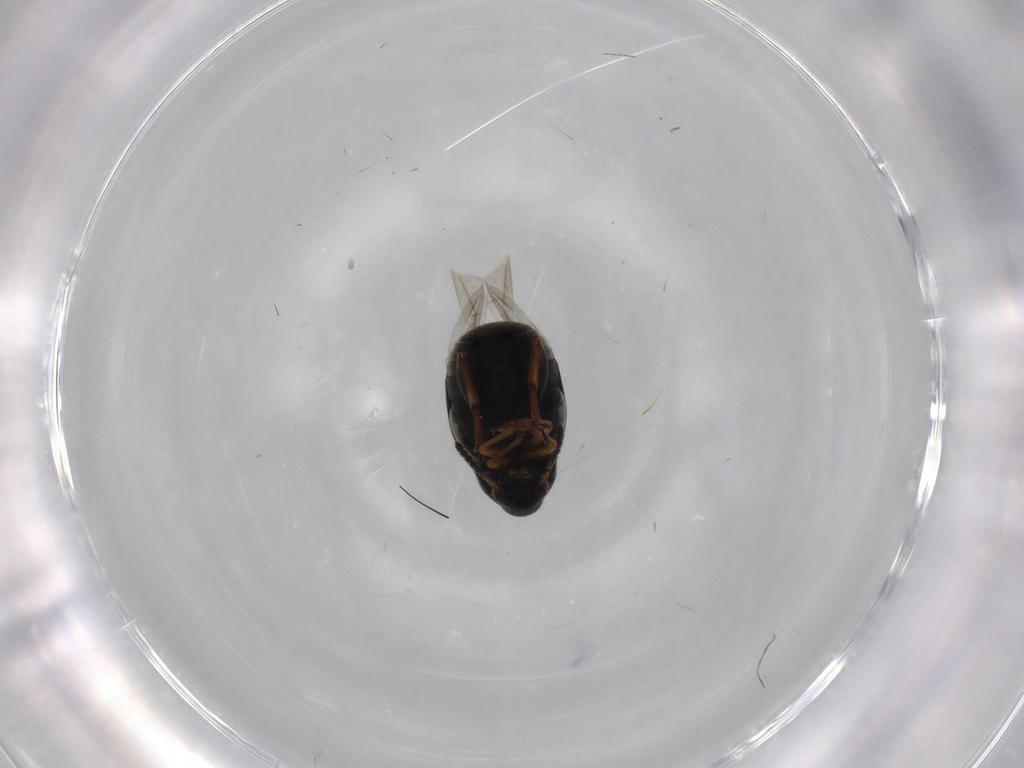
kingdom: Animalia
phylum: Arthropoda
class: Insecta
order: Coleoptera
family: Chrysomelidae
